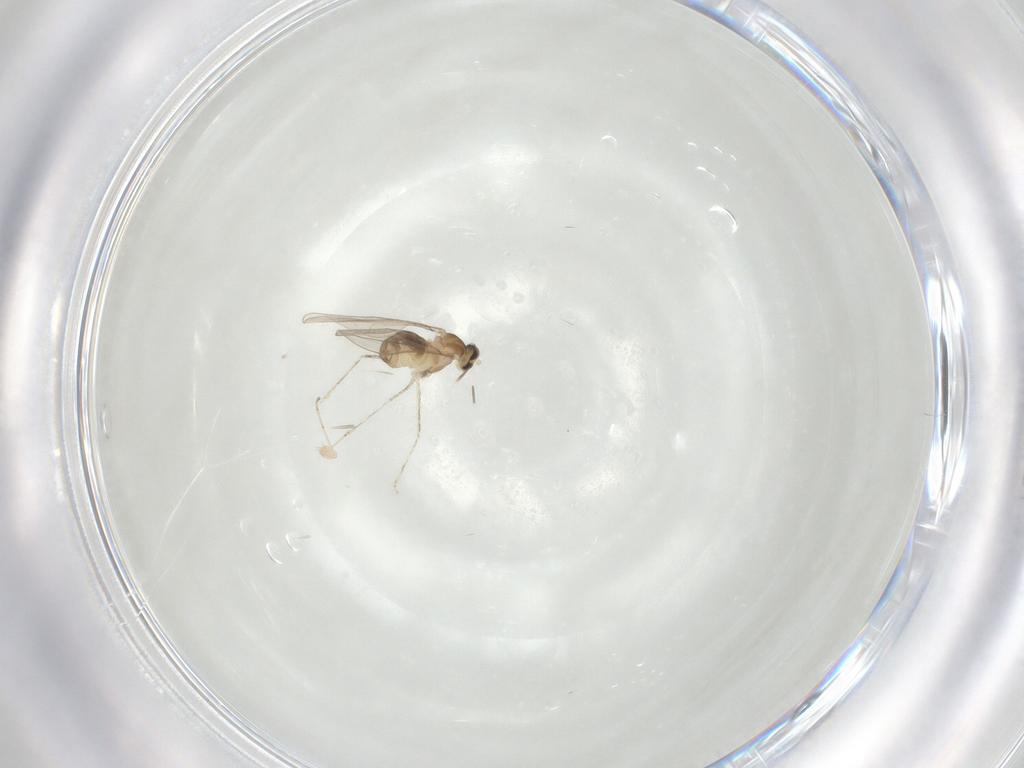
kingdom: Animalia
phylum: Arthropoda
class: Insecta
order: Diptera
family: Cecidomyiidae
